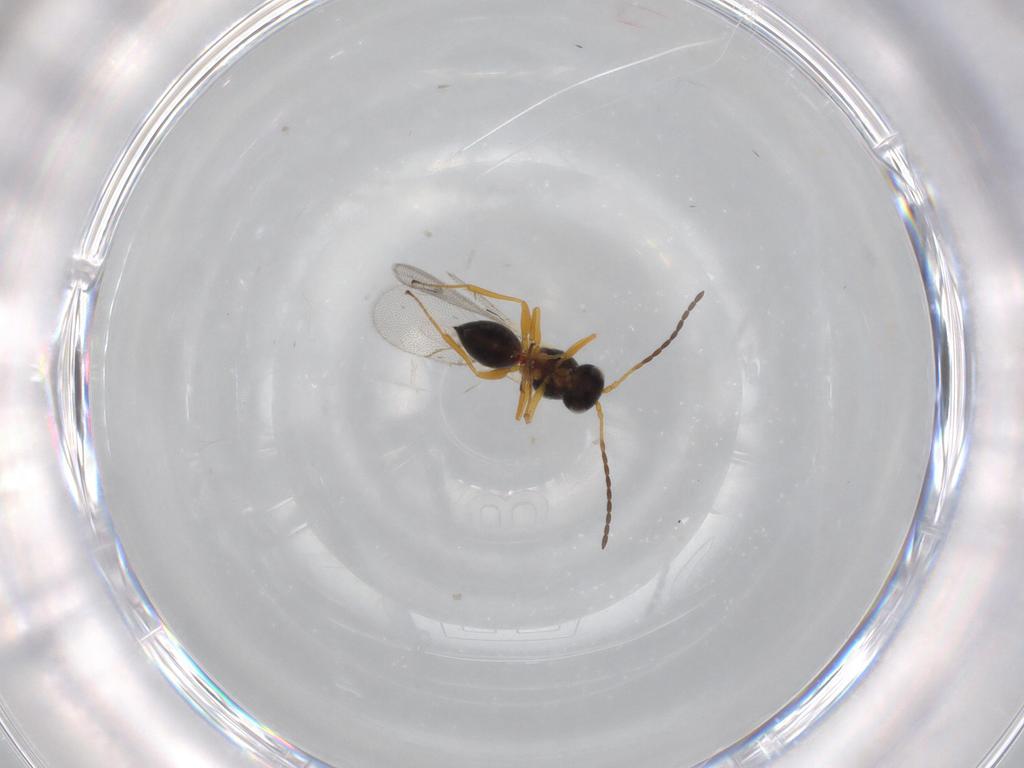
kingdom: Animalia
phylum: Arthropoda
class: Insecta
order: Hymenoptera
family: Figitidae
